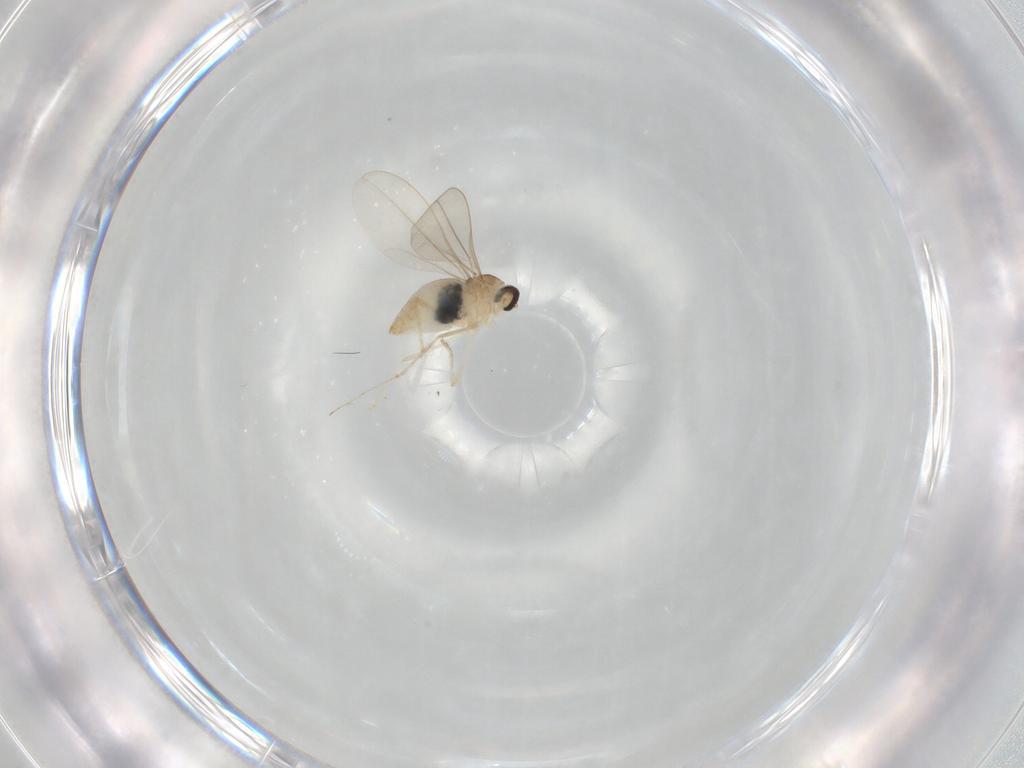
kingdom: Animalia
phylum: Arthropoda
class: Insecta
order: Diptera
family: Cecidomyiidae
